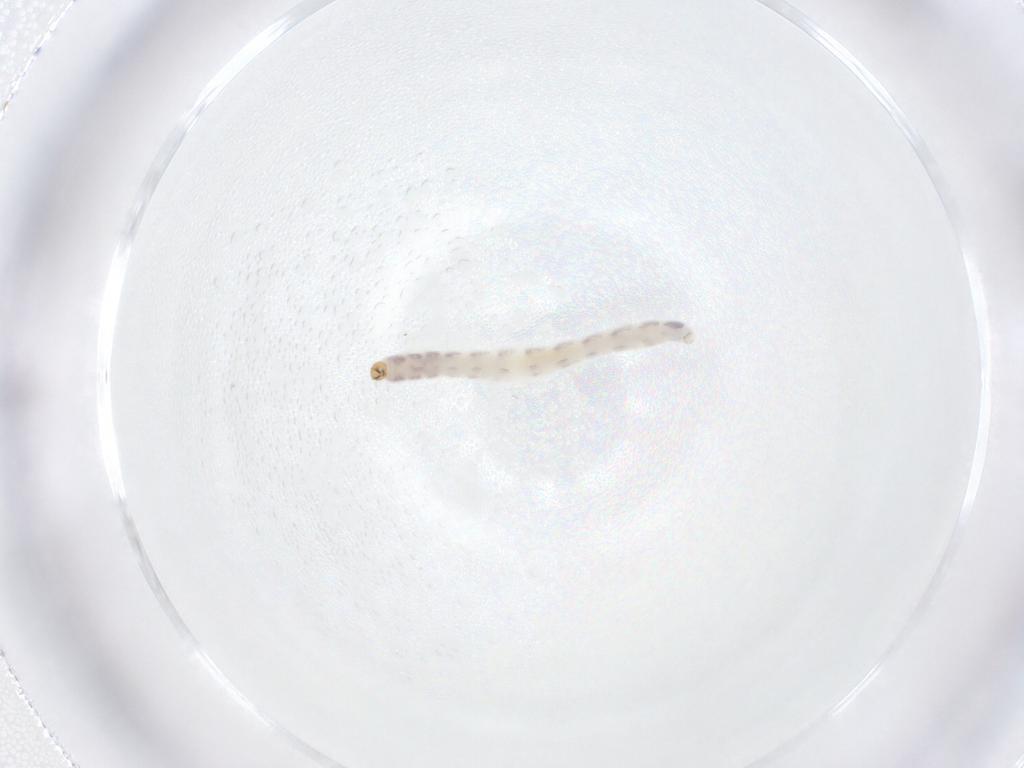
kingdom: Animalia
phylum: Arthropoda
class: Insecta
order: Diptera
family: Chironomidae
